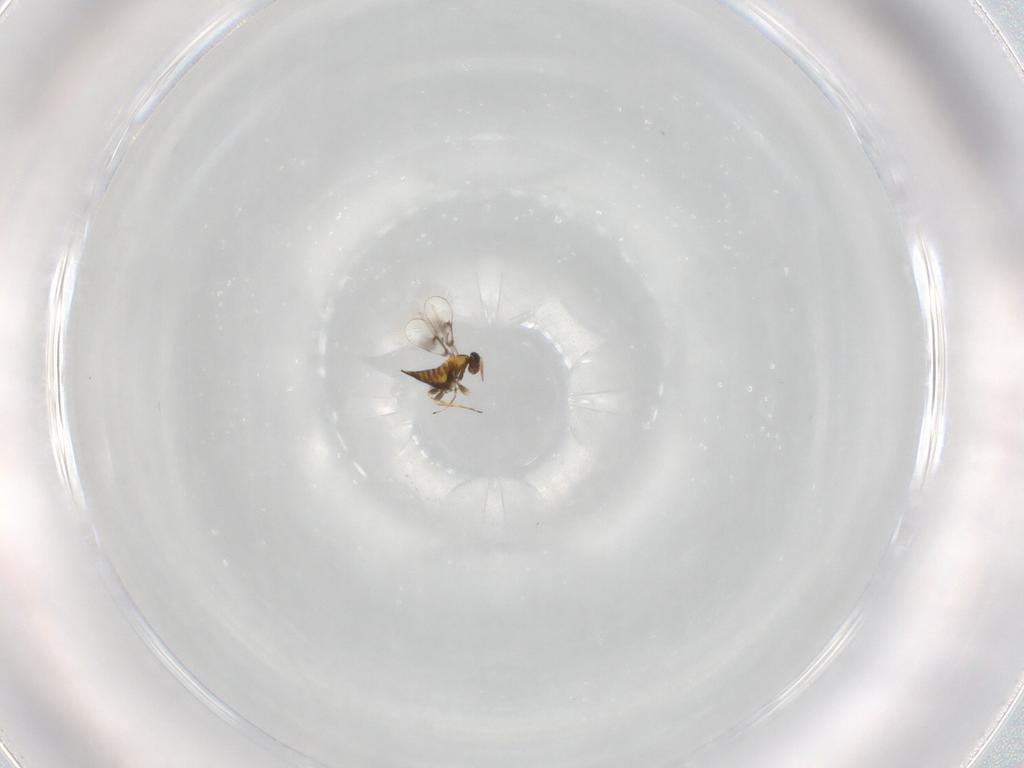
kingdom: Animalia
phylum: Arthropoda
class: Insecta
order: Hymenoptera
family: Trichogrammatidae
